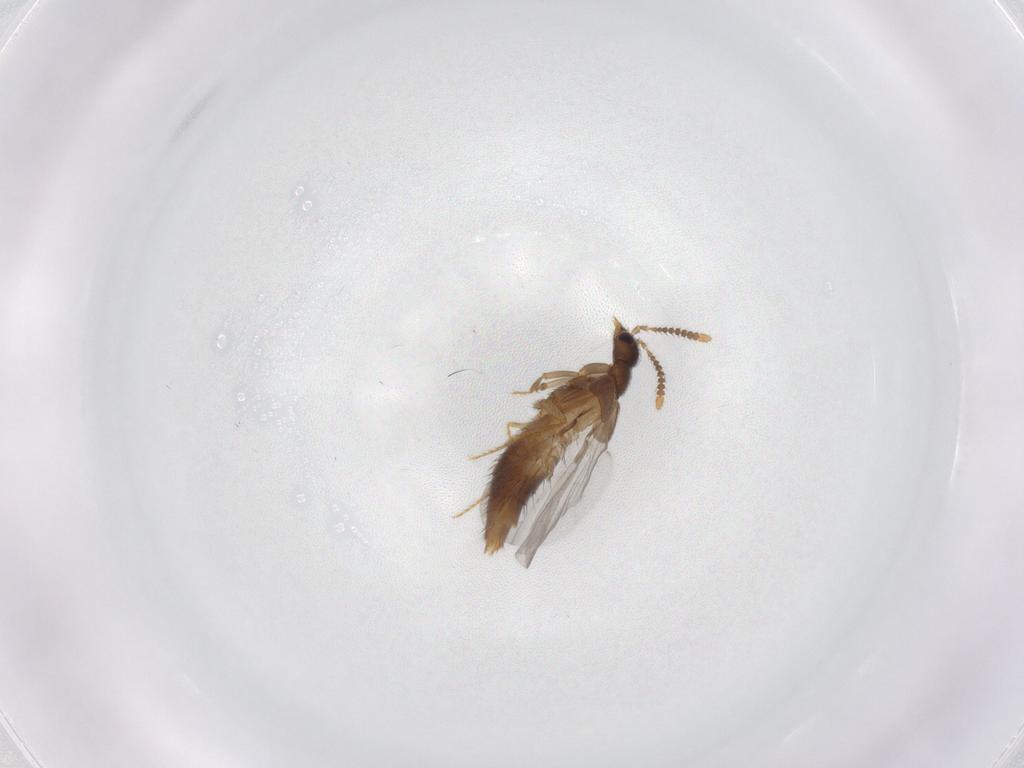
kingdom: Animalia
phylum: Arthropoda
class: Insecta
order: Coleoptera
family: Staphylinidae
